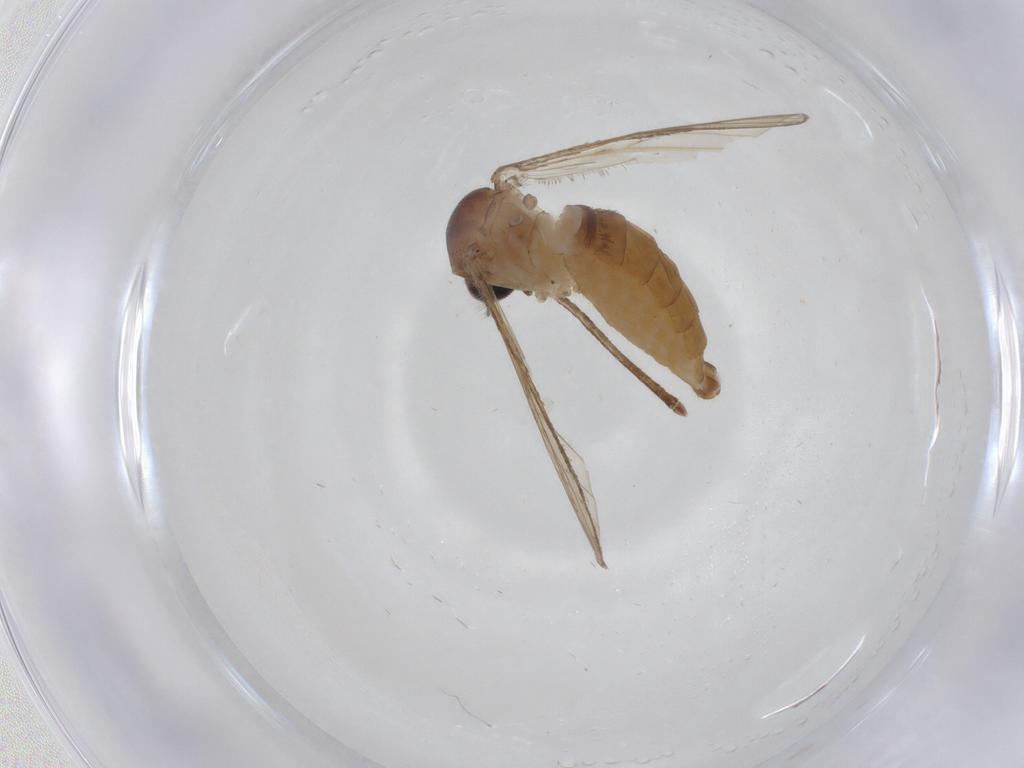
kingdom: Animalia
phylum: Arthropoda
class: Insecta
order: Diptera
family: Culicidae
